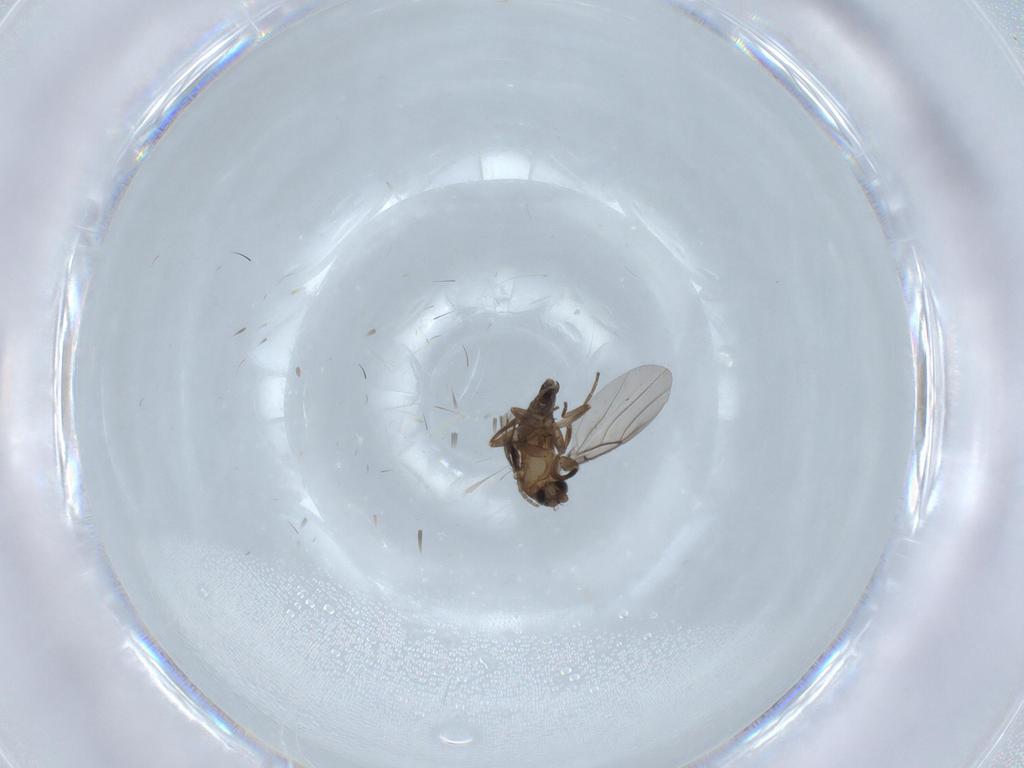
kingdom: Animalia
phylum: Arthropoda
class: Insecta
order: Diptera
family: Phoridae
